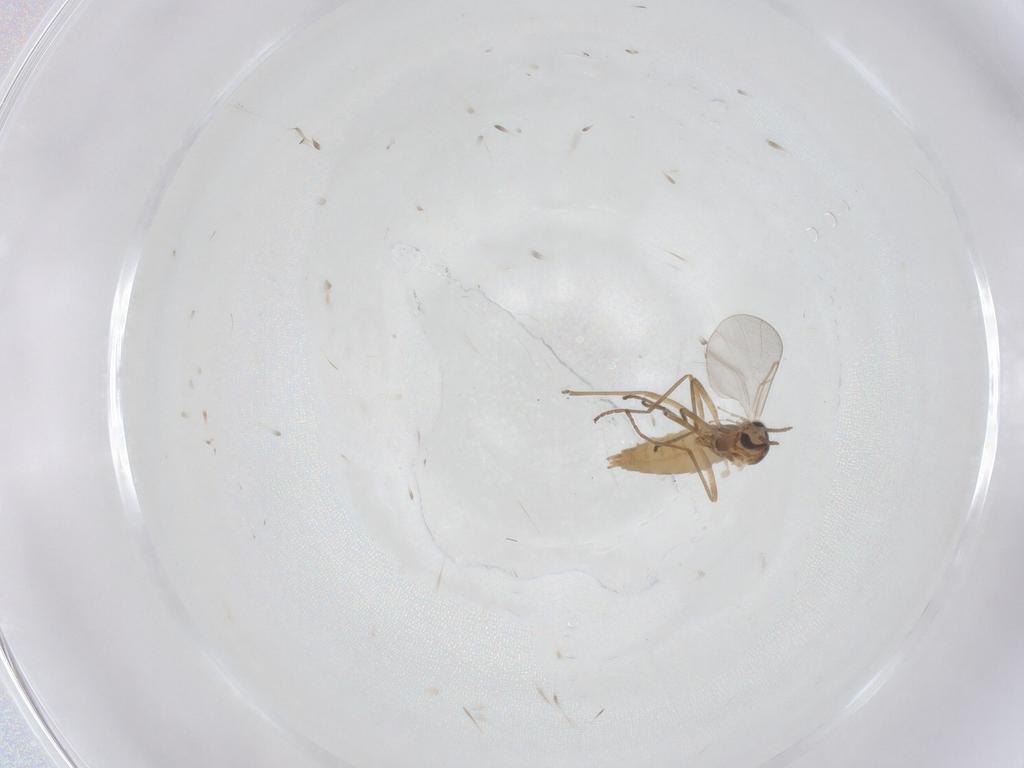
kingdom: Animalia
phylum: Arthropoda
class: Insecta
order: Diptera
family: Cecidomyiidae
